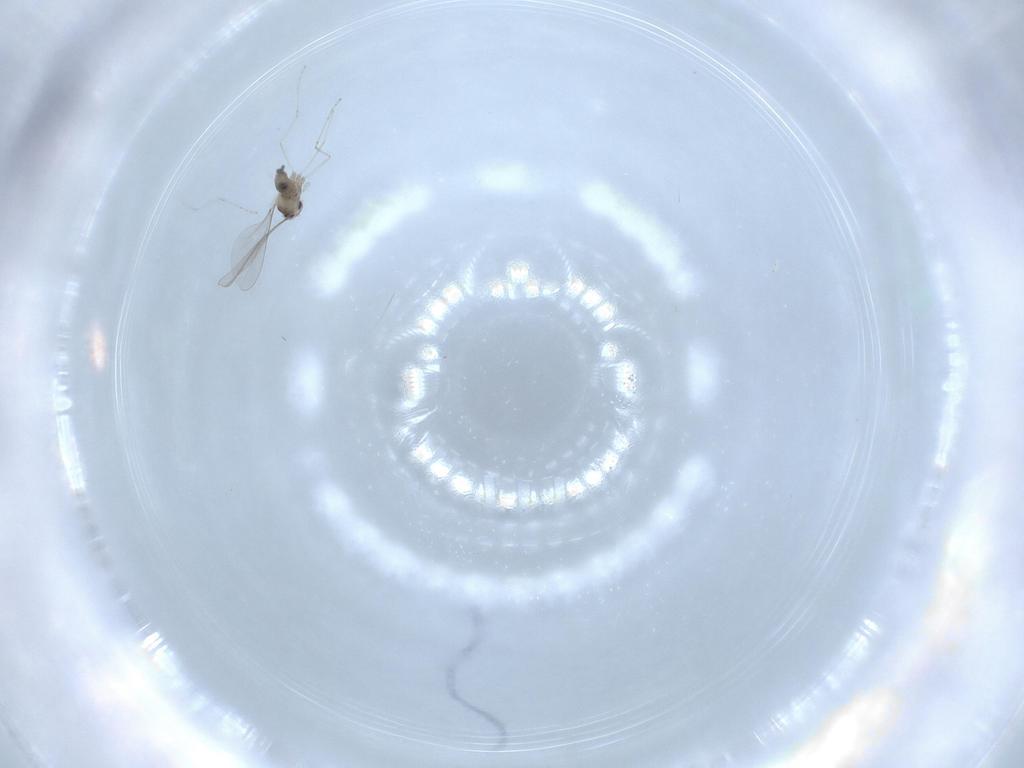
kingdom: Animalia
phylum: Arthropoda
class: Insecta
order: Diptera
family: Cecidomyiidae
